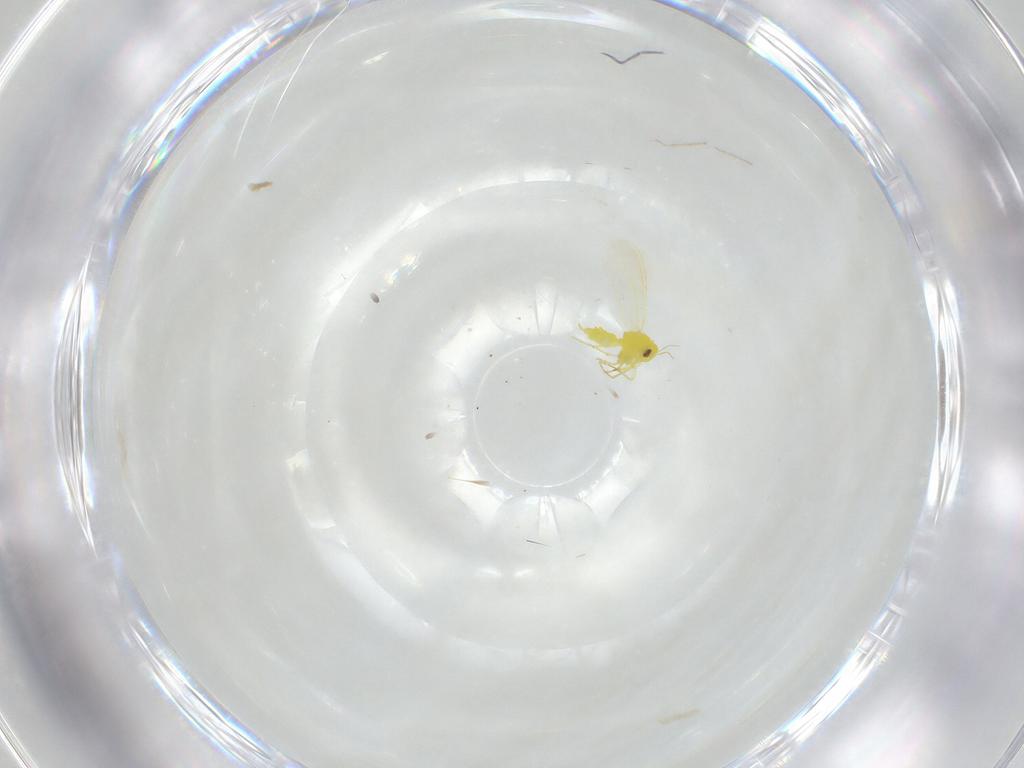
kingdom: Animalia
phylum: Arthropoda
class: Insecta
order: Hemiptera
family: Aleyrodidae
